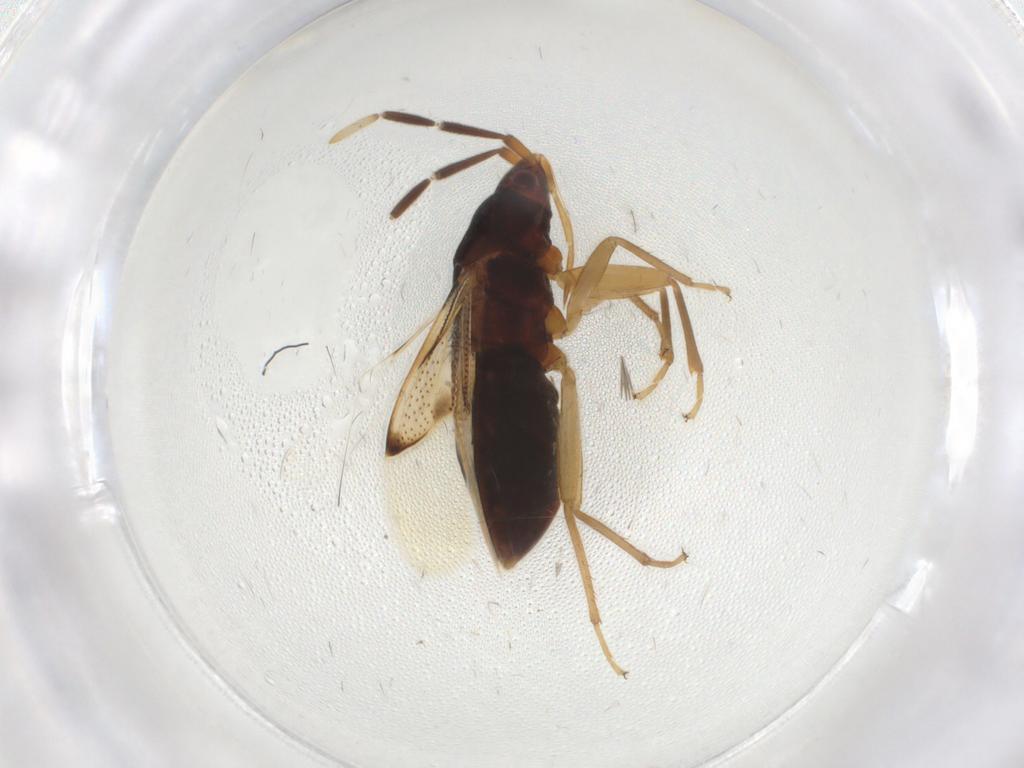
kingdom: Animalia
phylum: Arthropoda
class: Insecta
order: Hemiptera
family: Rhyparochromidae
